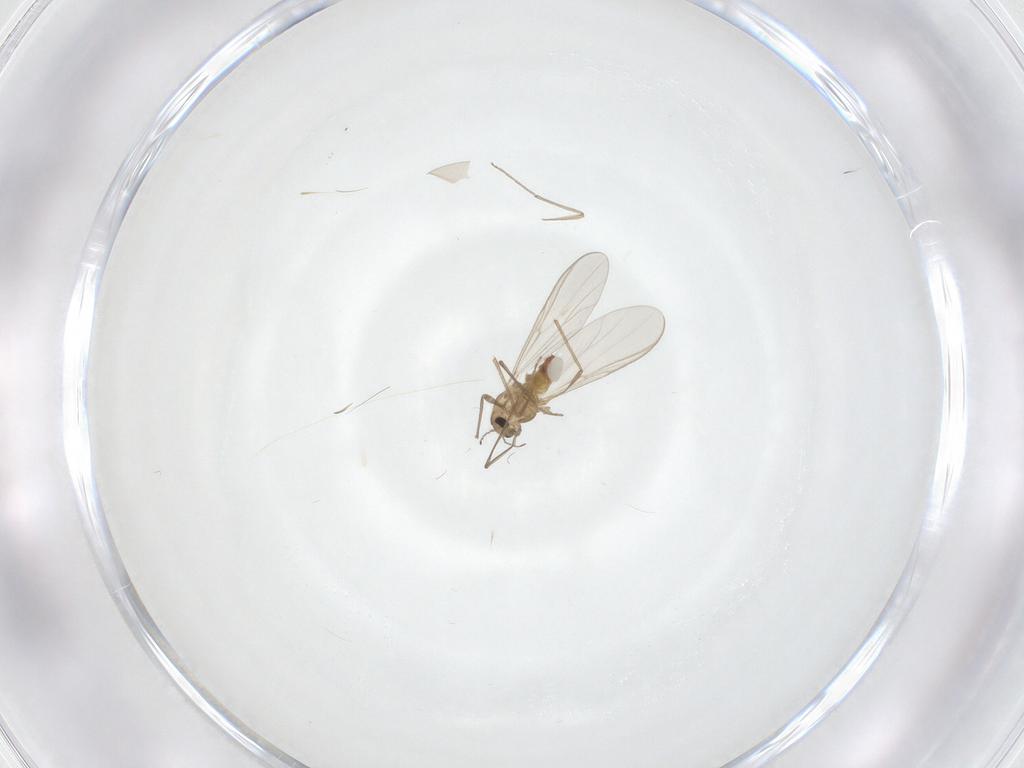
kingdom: Animalia
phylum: Arthropoda
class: Insecta
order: Diptera
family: Chironomidae
